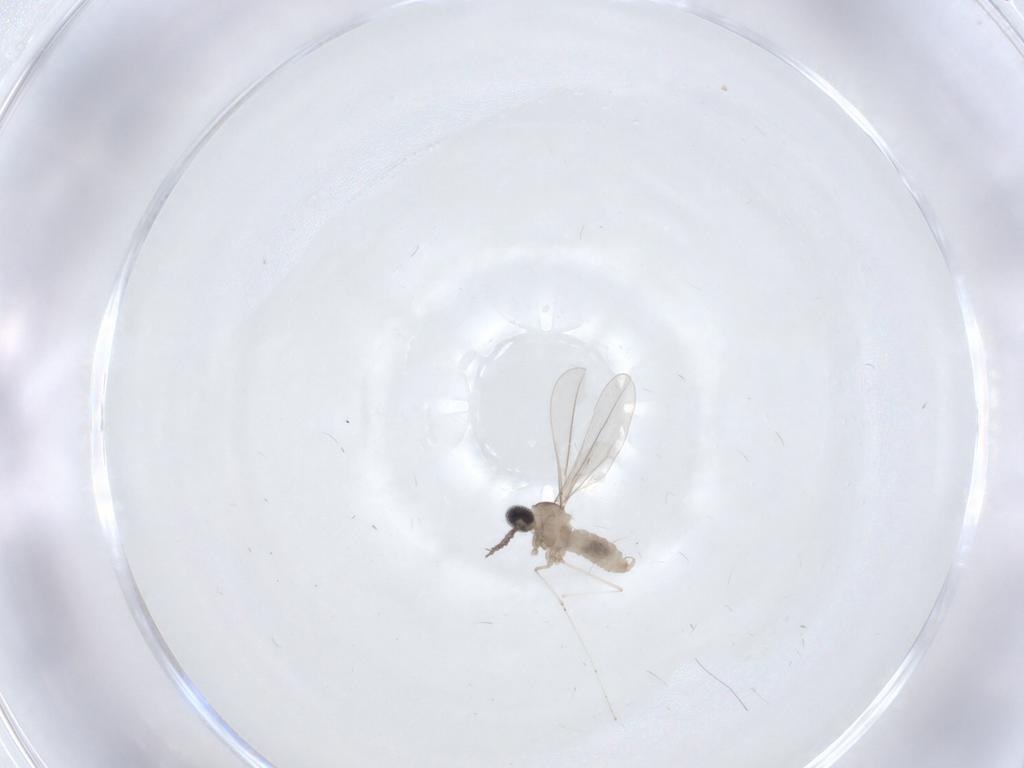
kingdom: Animalia
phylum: Arthropoda
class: Insecta
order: Diptera
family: Cecidomyiidae
